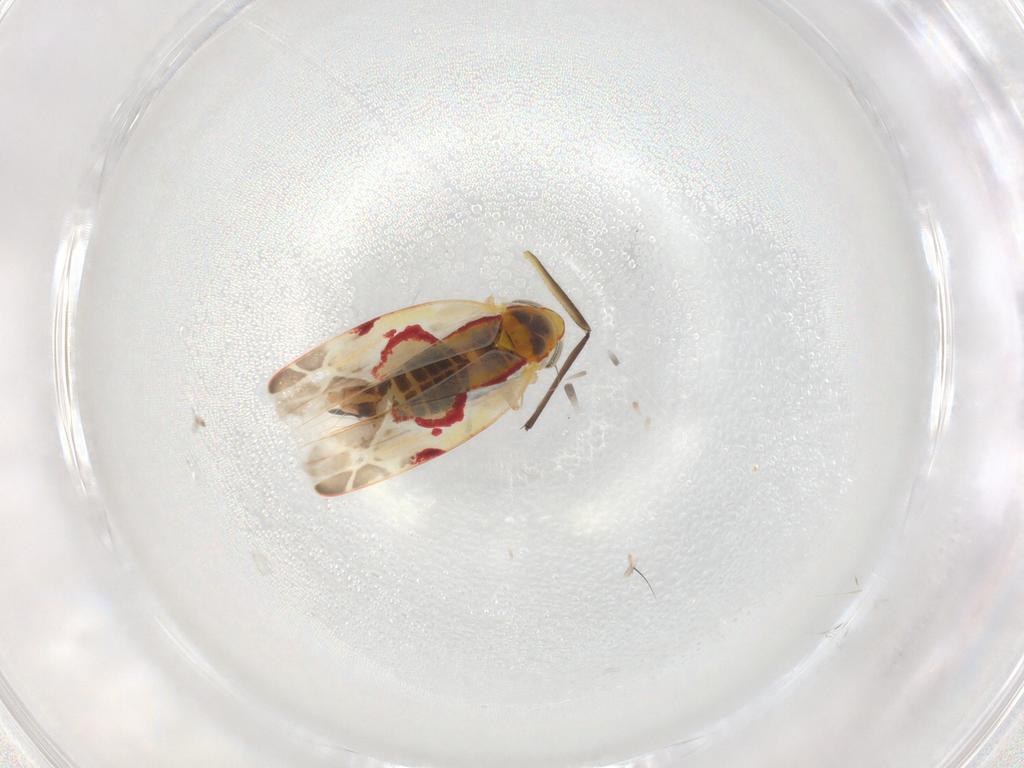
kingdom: Animalia
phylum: Arthropoda
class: Insecta
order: Hemiptera
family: Cicadellidae
